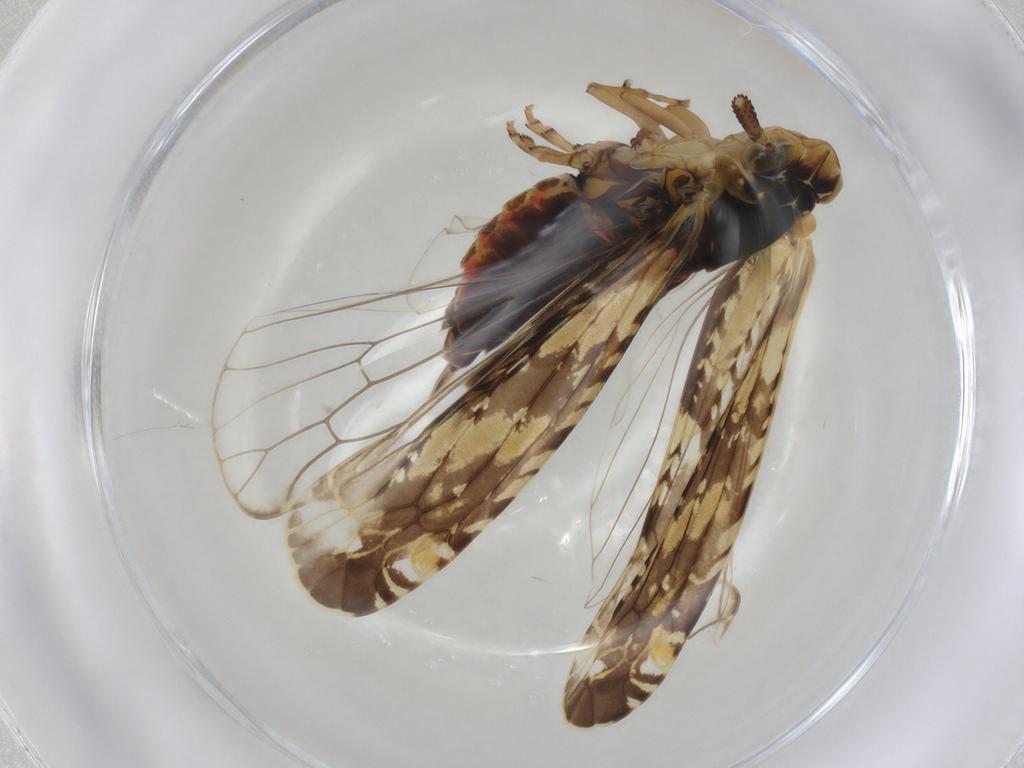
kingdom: Animalia
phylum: Arthropoda
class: Insecta
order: Hemiptera
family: Achilidae
